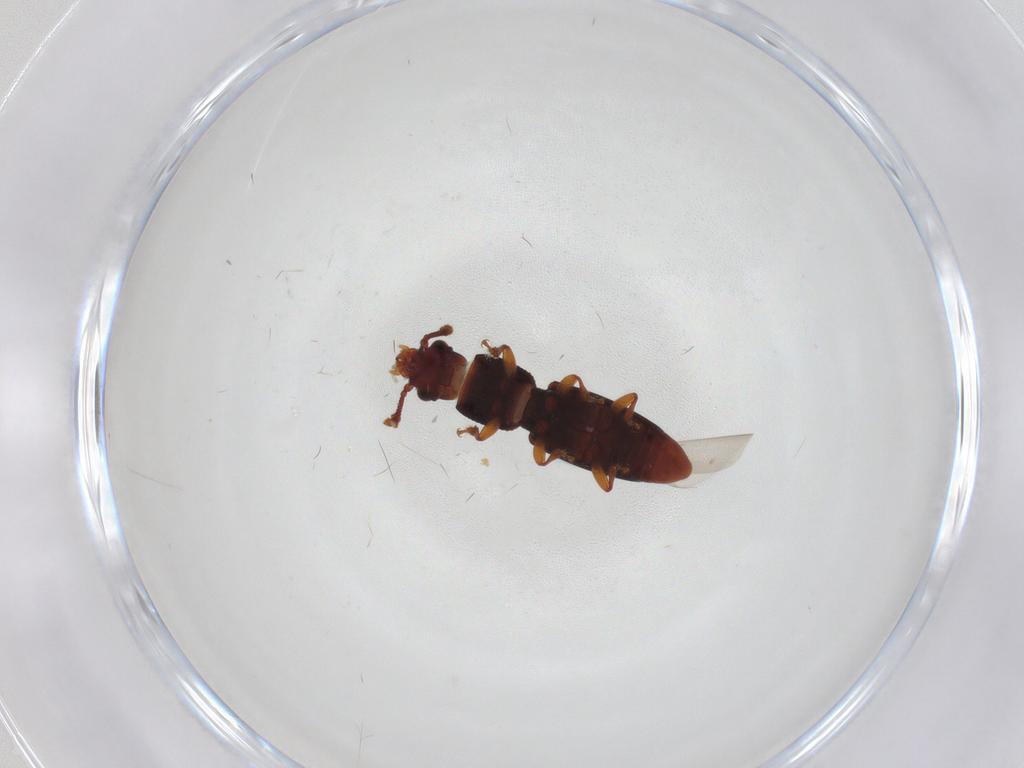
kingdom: Animalia
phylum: Arthropoda
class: Insecta
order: Coleoptera
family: Monotomidae
